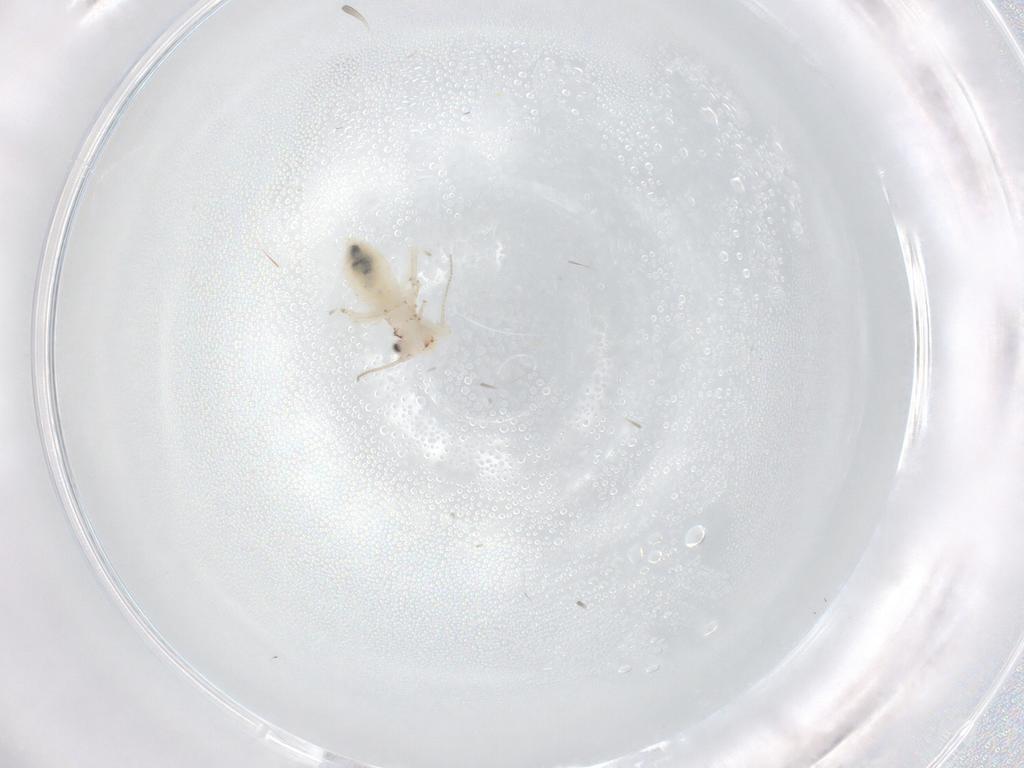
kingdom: Animalia
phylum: Arthropoda
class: Insecta
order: Psocodea
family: Lepidopsocidae
